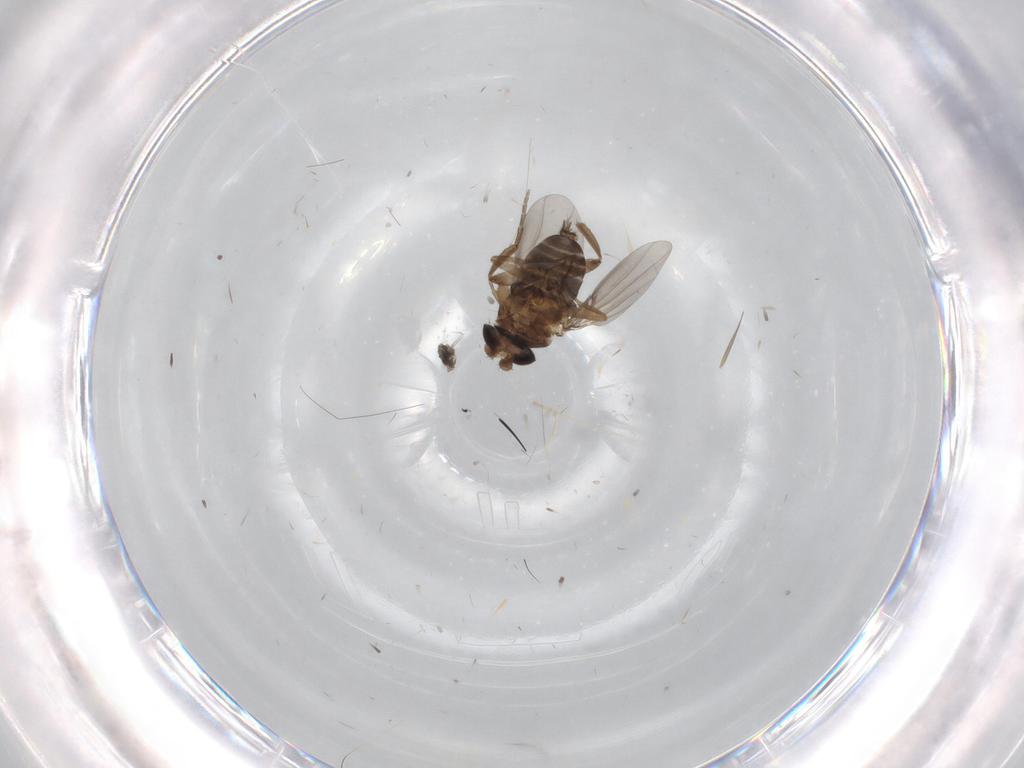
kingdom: Animalia
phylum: Arthropoda
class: Insecta
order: Diptera
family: Phoridae
